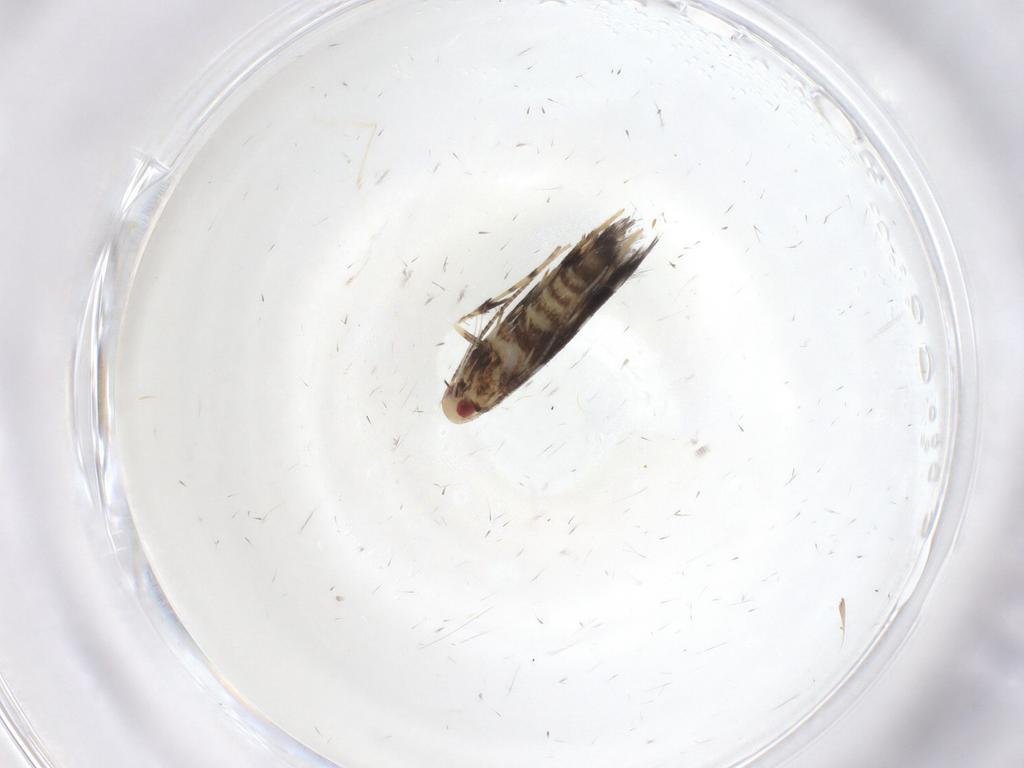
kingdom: Animalia
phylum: Arthropoda
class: Insecta
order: Lepidoptera
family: Gracillariidae
